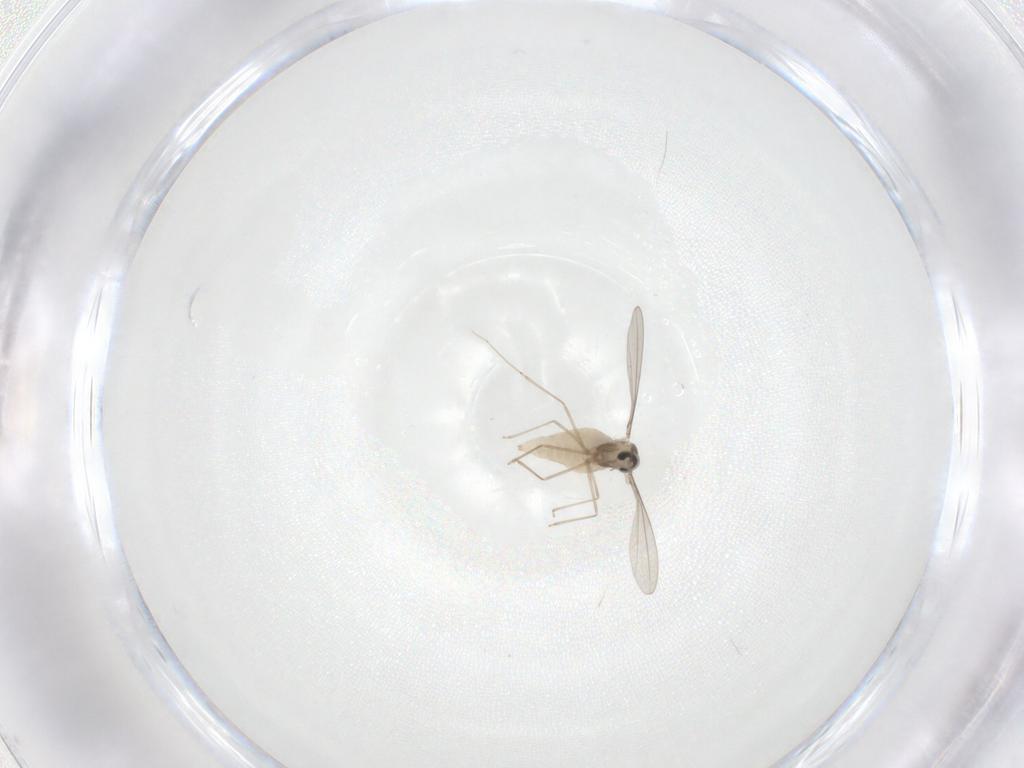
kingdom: Animalia
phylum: Arthropoda
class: Insecta
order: Diptera
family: Cecidomyiidae
